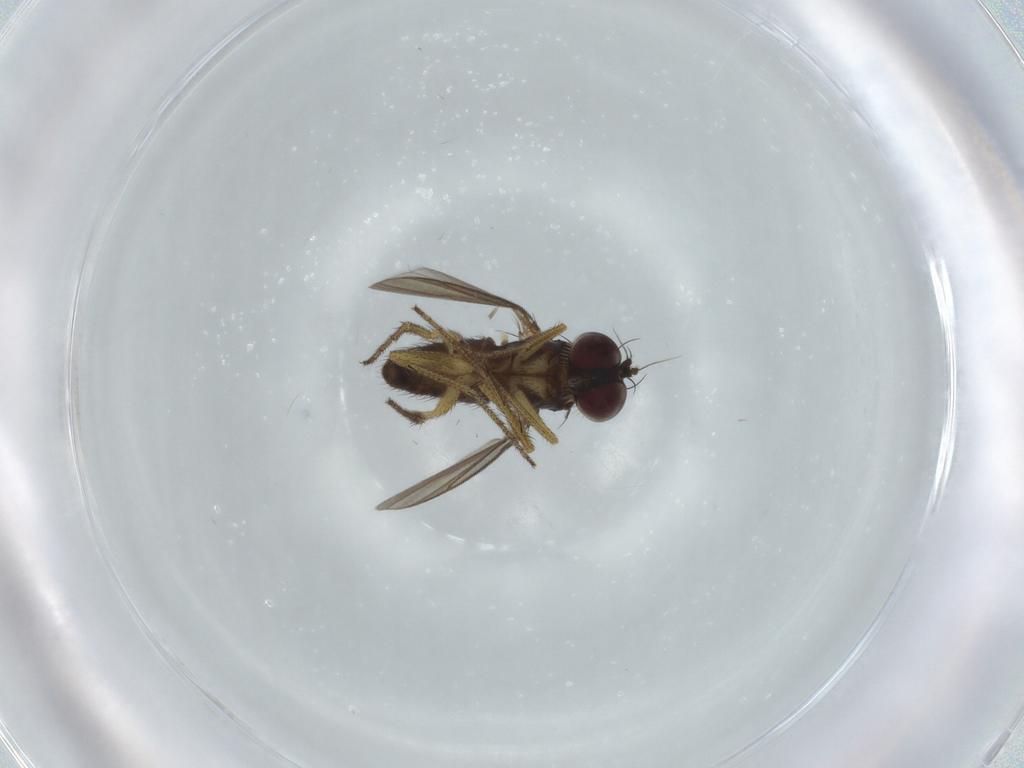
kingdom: Animalia
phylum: Arthropoda
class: Insecta
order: Diptera
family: Dolichopodidae
